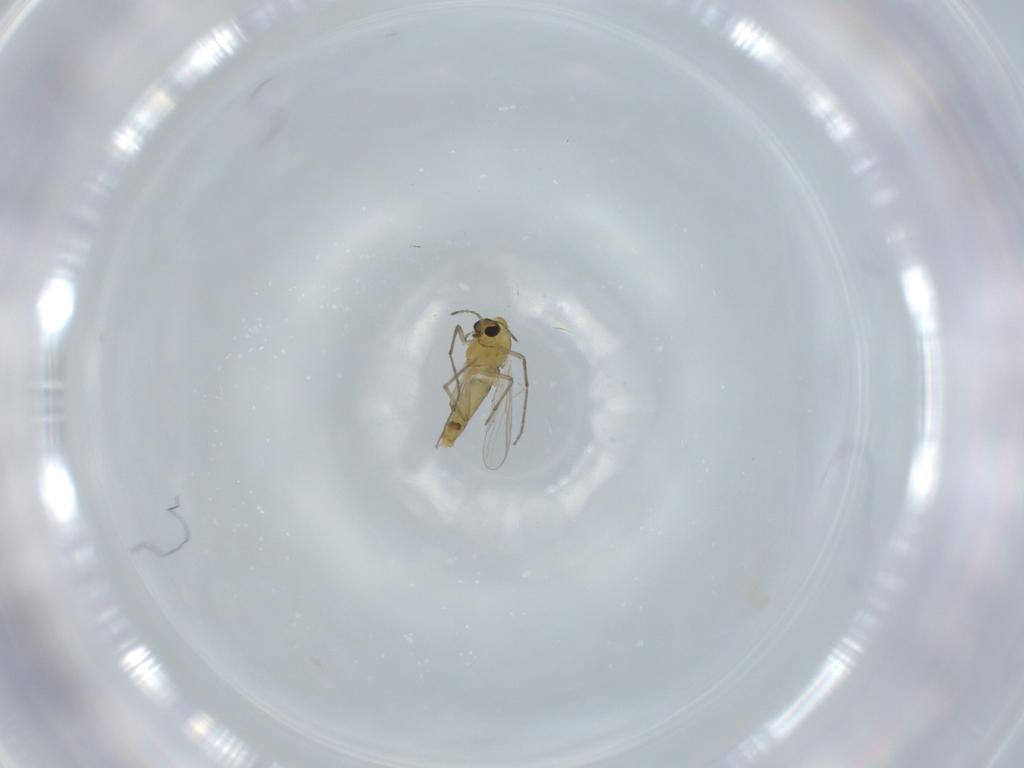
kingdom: Animalia
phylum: Arthropoda
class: Insecta
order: Diptera
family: Chironomidae
